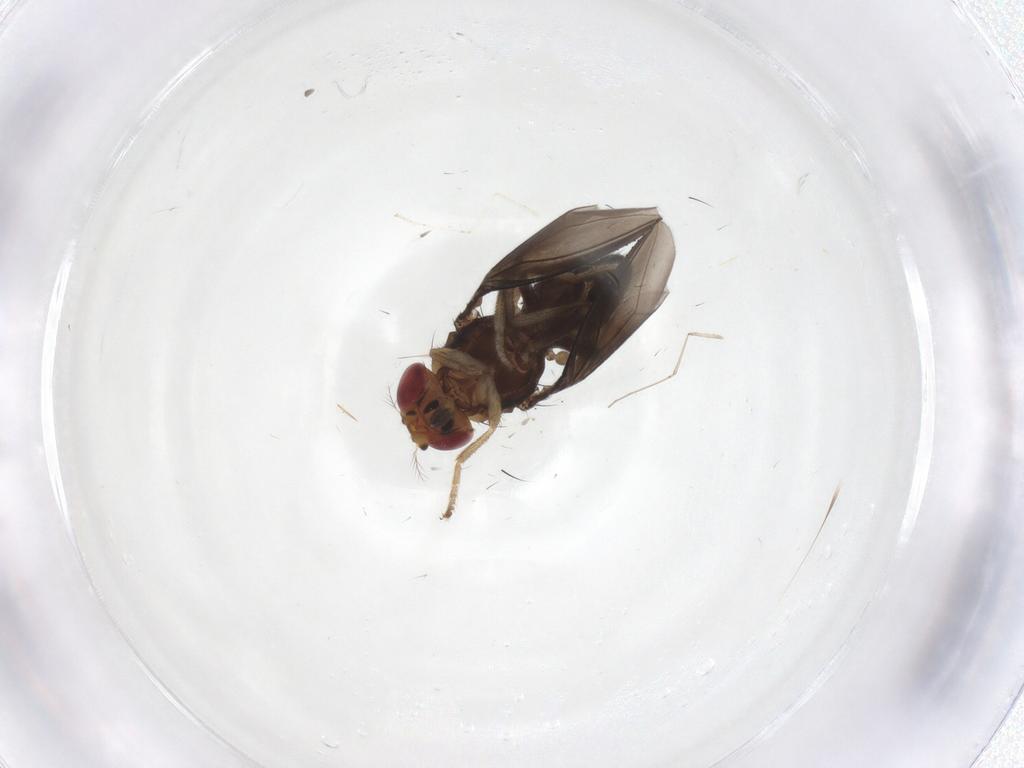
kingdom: Animalia
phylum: Arthropoda
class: Insecta
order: Diptera
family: Drosophilidae
